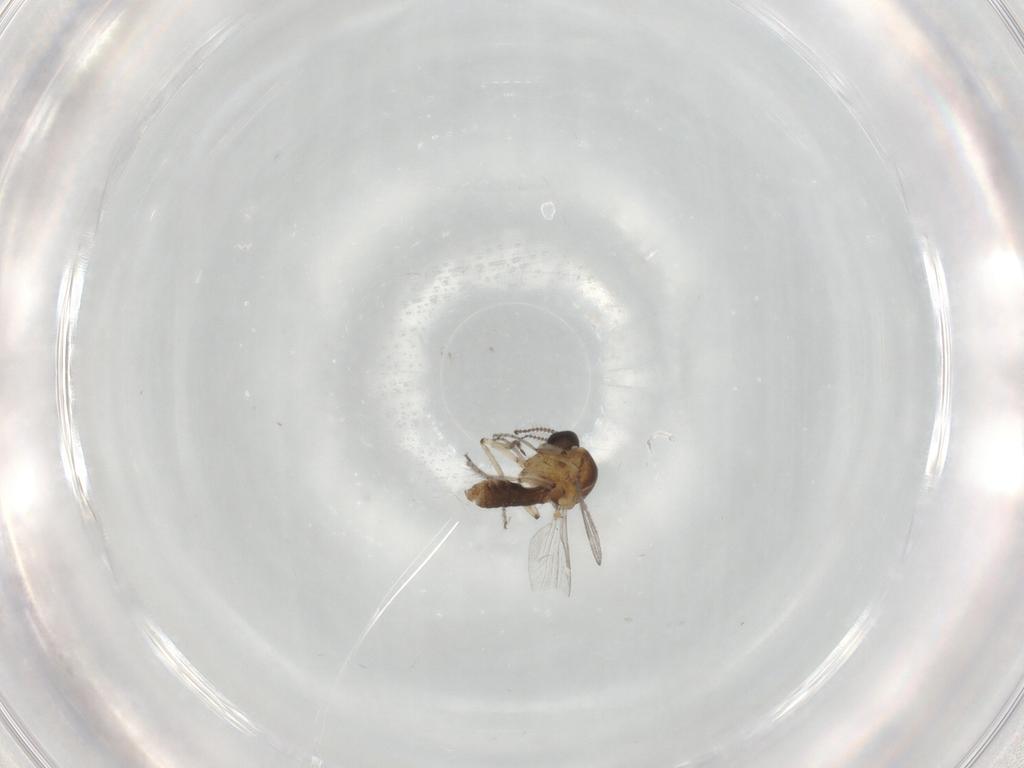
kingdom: Animalia
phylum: Arthropoda
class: Insecta
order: Diptera
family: Ceratopogonidae
